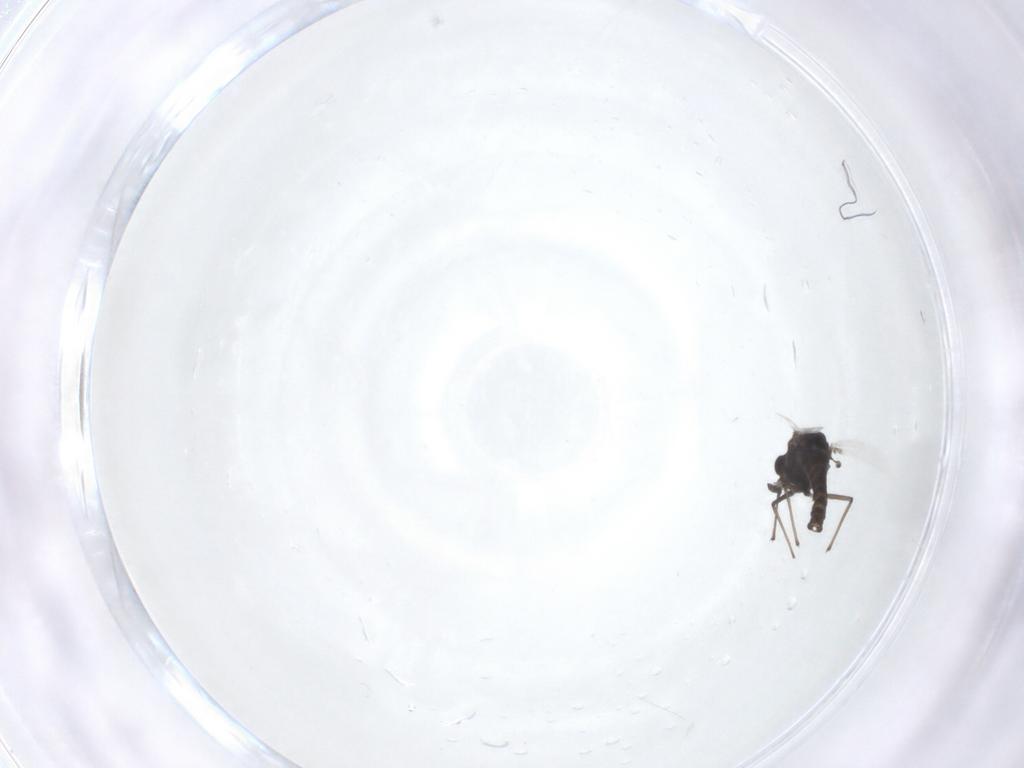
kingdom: Animalia
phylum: Arthropoda
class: Insecta
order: Diptera
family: Chironomidae
